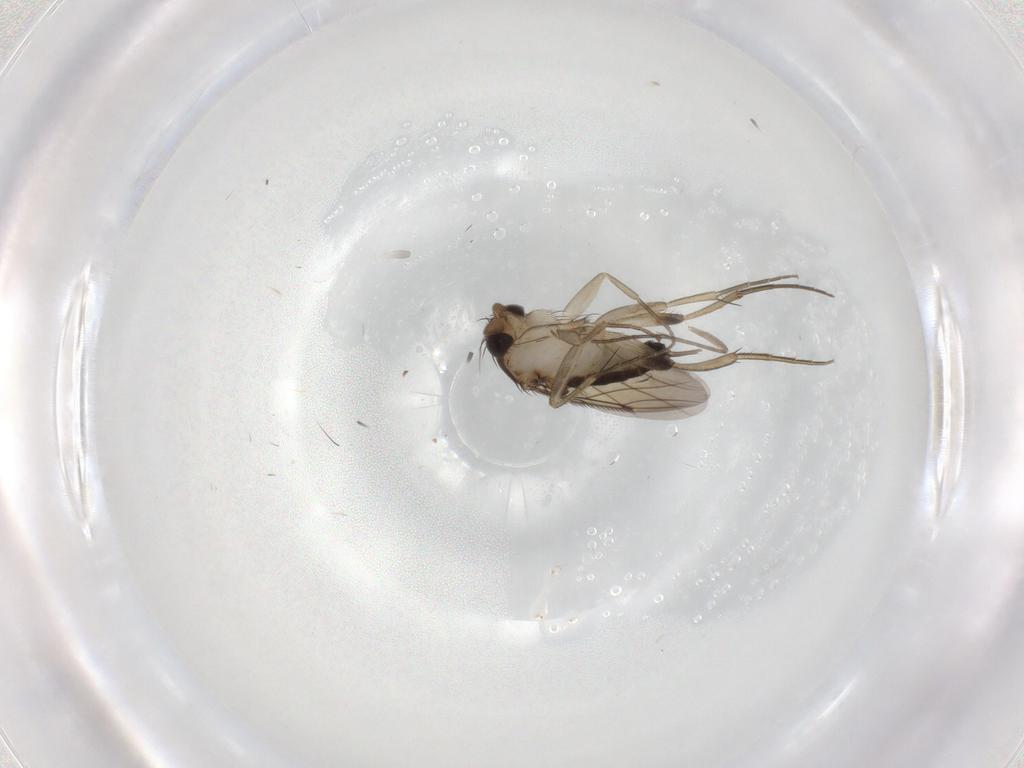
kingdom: Animalia
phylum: Arthropoda
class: Insecta
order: Diptera
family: Phoridae
